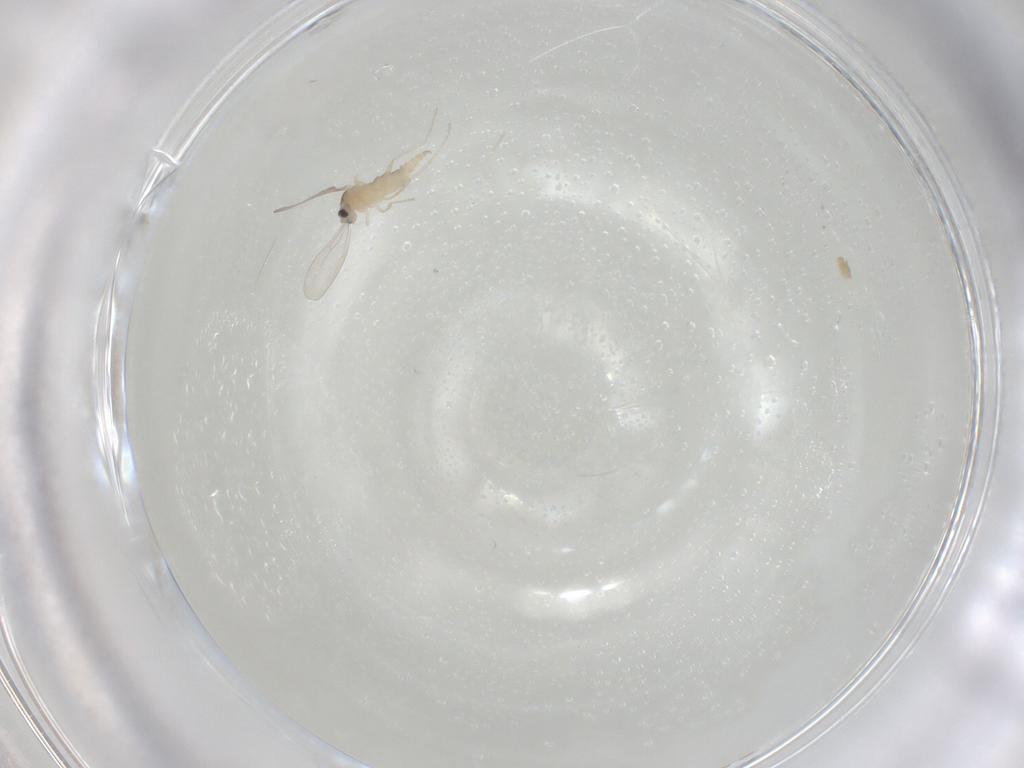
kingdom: Animalia
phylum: Arthropoda
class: Insecta
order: Diptera
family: Cecidomyiidae
